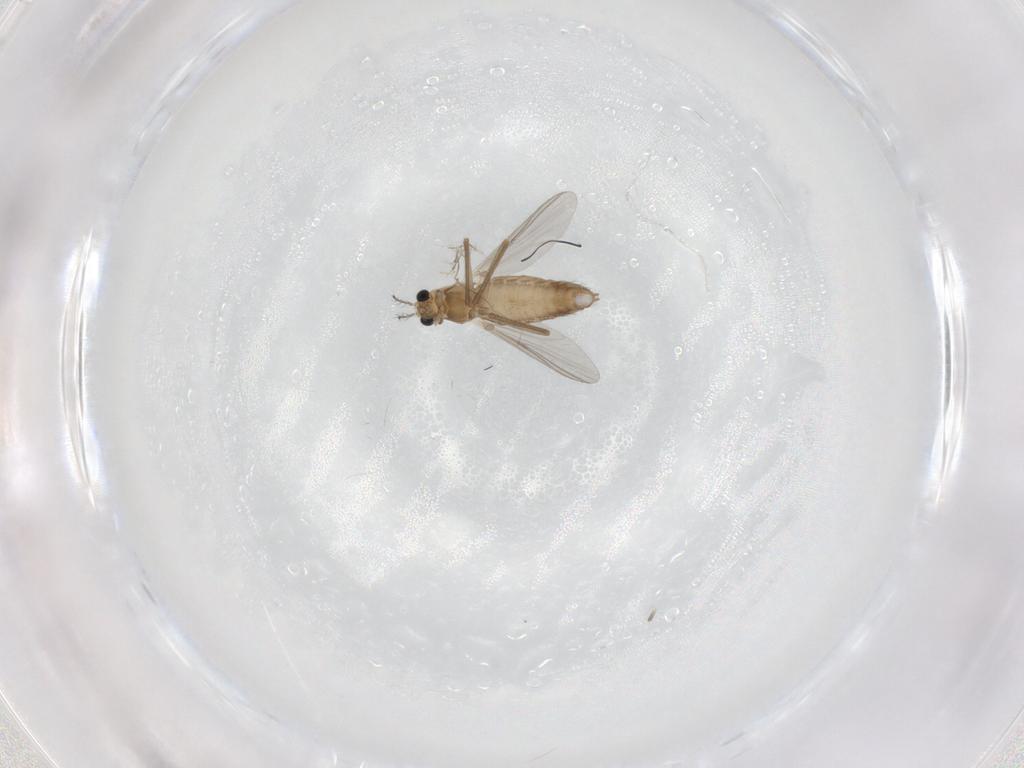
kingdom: Animalia
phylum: Arthropoda
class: Insecta
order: Diptera
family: Chironomidae
